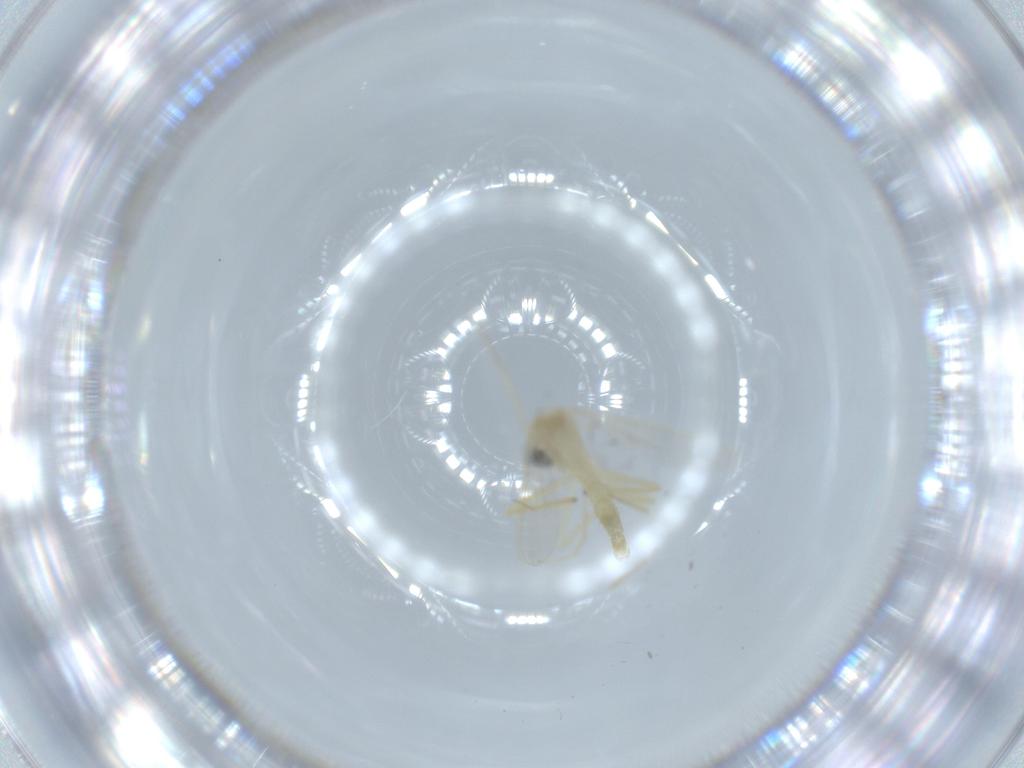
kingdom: Animalia
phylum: Arthropoda
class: Insecta
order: Diptera
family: Chironomidae
